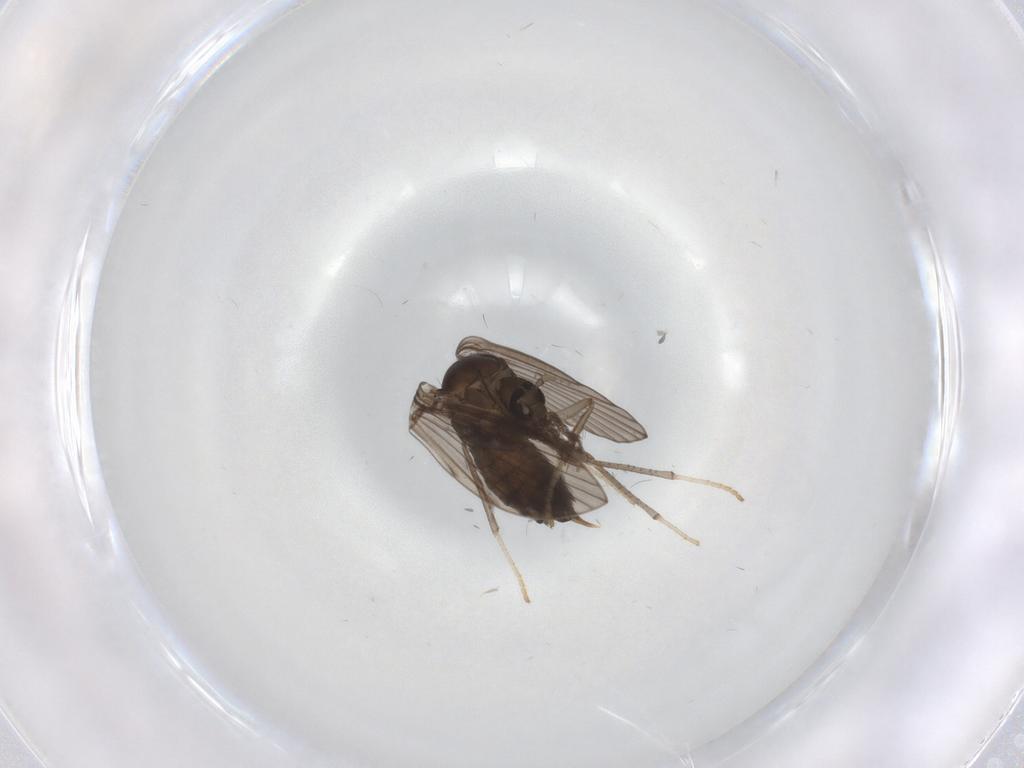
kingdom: Animalia
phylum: Arthropoda
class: Insecta
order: Diptera
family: Psychodidae
